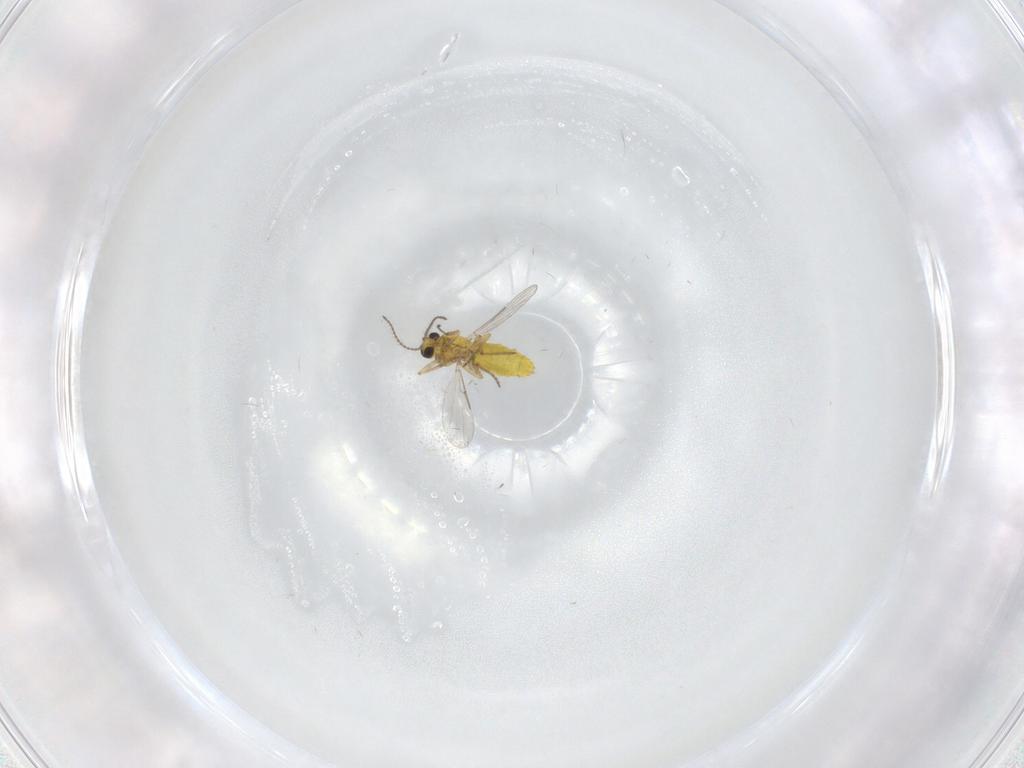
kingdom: Animalia
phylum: Arthropoda
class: Insecta
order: Diptera
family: Ceratopogonidae
